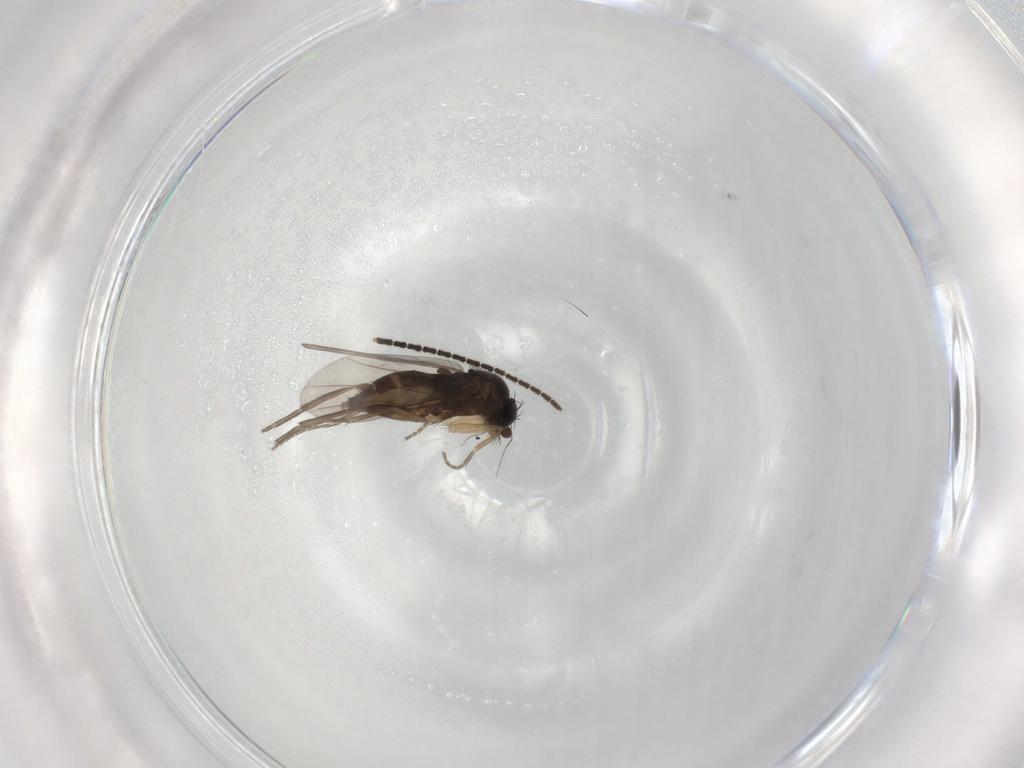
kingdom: Animalia
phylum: Arthropoda
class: Insecta
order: Diptera
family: Phoridae
